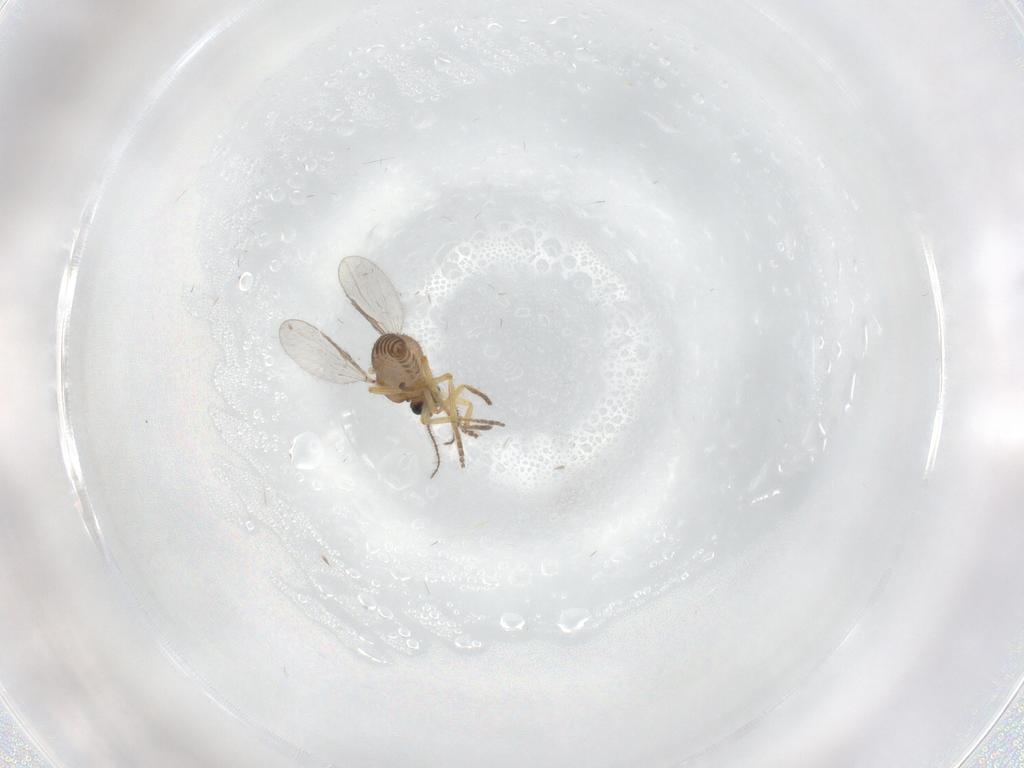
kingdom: Animalia
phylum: Arthropoda
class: Insecta
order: Diptera
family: Ceratopogonidae
